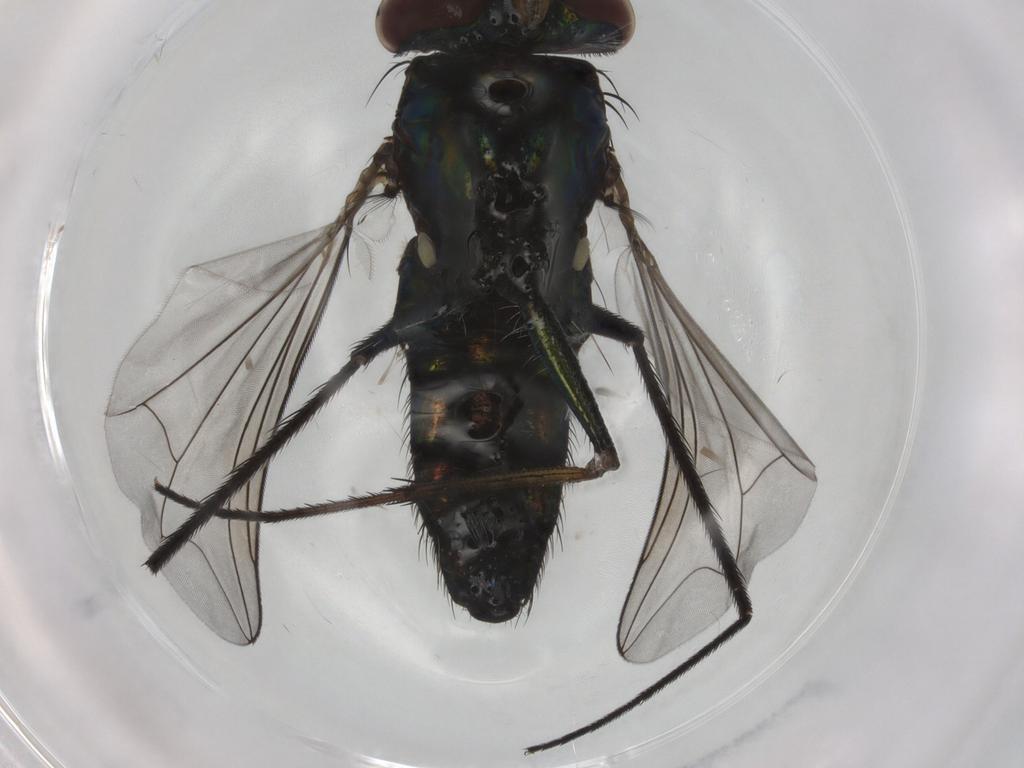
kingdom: Animalia
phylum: Arthropoda
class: Insecta
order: Diptera
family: Dolichopodidae
